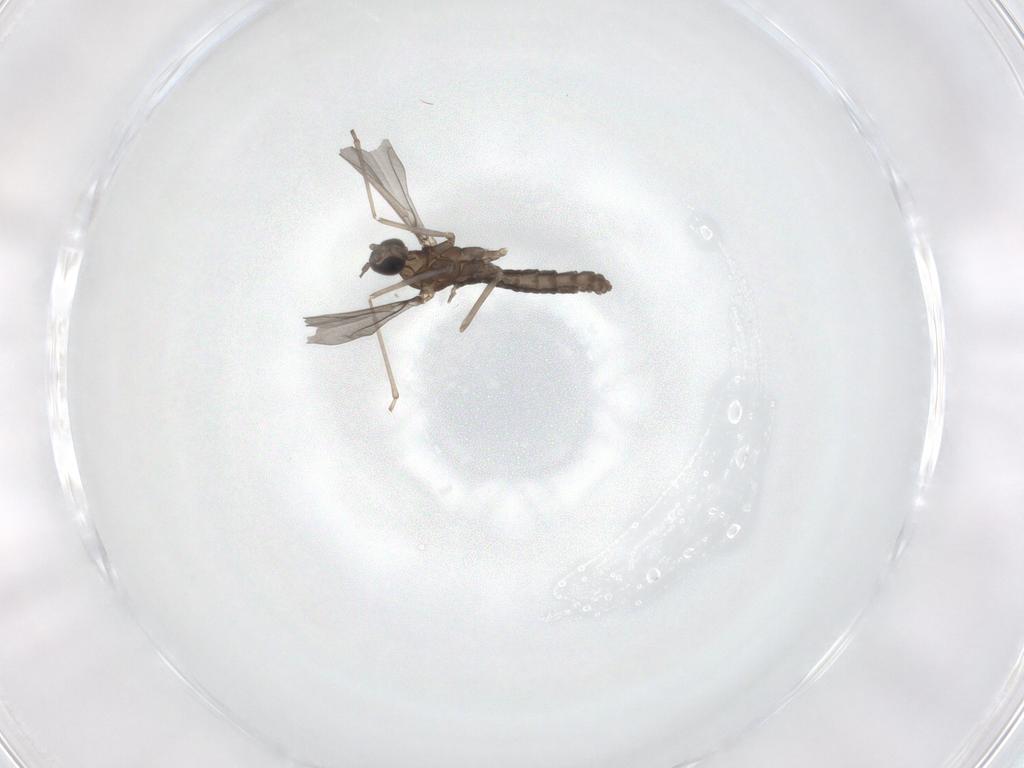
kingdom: Animalia
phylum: Arthropoda
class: Insecta
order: Diptera
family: Cecidomyiidae
